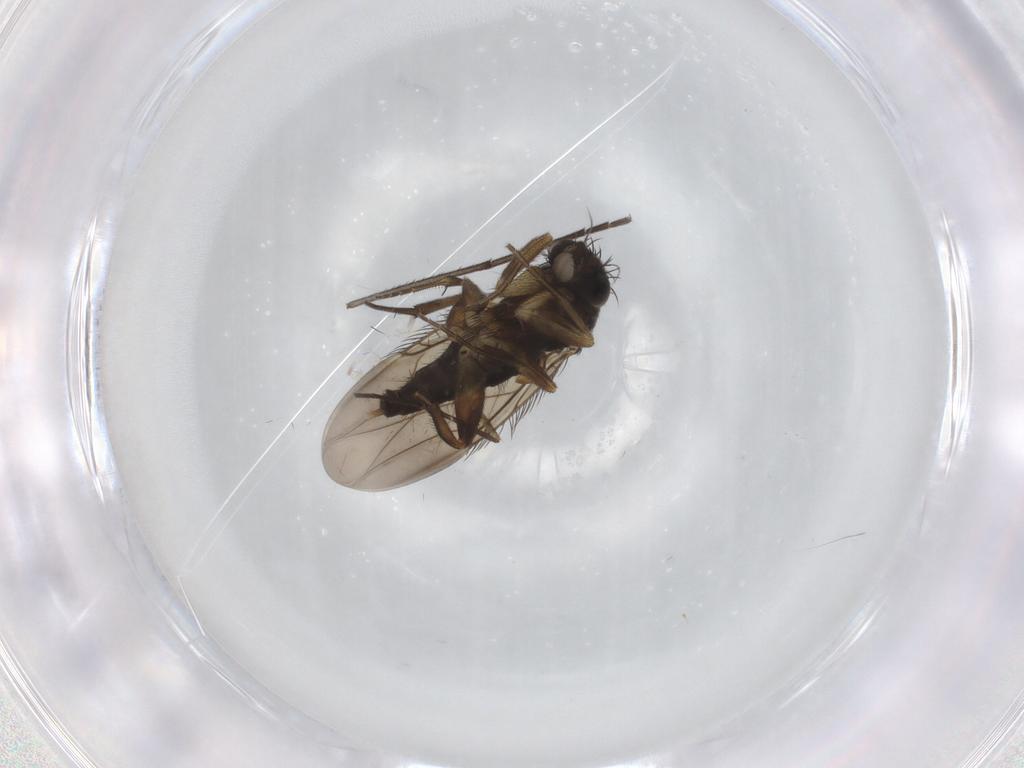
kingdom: Animalia
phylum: Arthropoda
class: Insecta
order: Diptera
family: Phoridae
